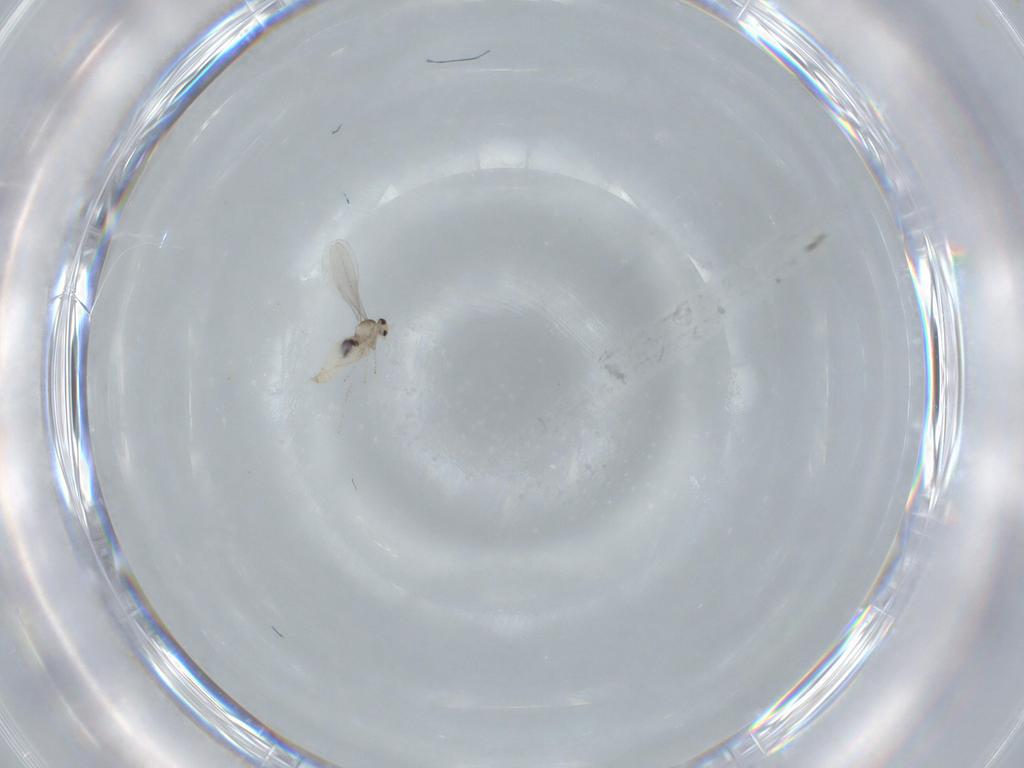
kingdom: Animalia
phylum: Arthropoda
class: Insecta
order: Diptera
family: Cecidomyiidae
